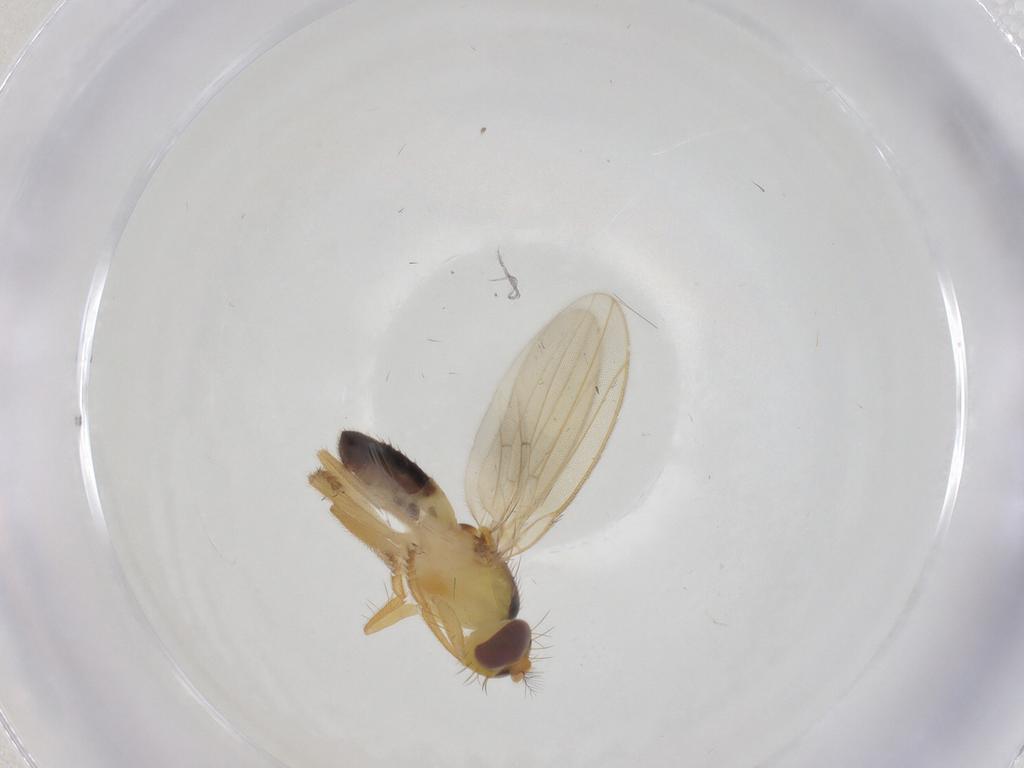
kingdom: Animalia
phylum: Arthropoda
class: Insecta
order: Diptera
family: Periscelididae
